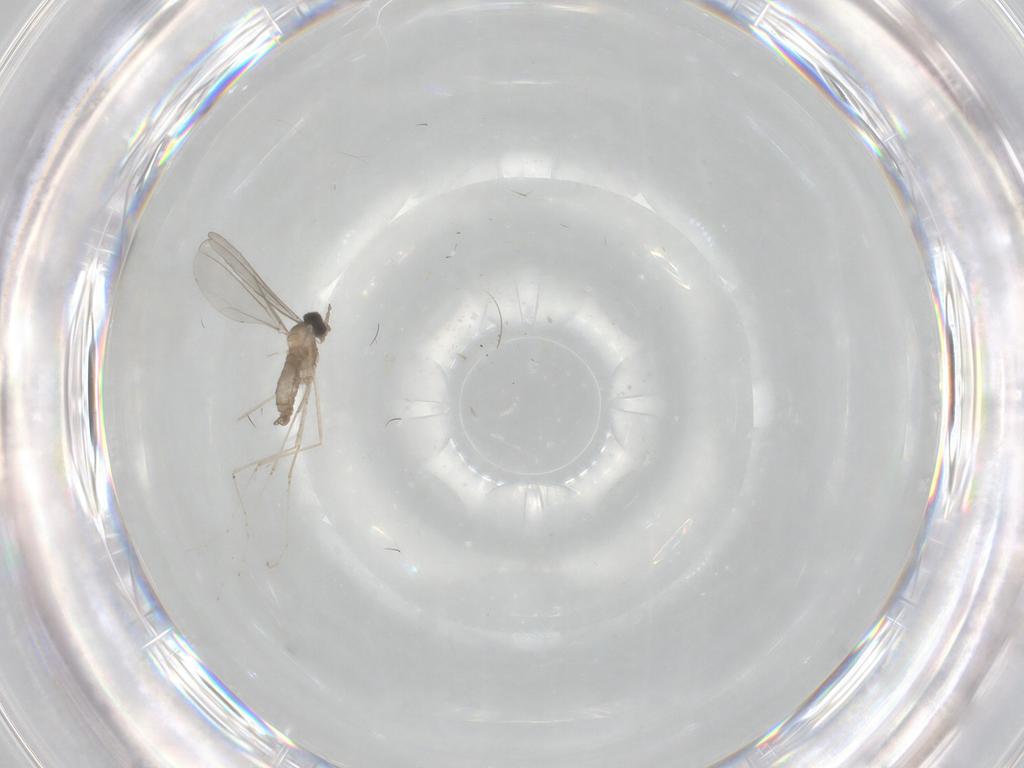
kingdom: Animalia
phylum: Arthropoda
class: Insecta
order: Diptera
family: Cecidomyiidae
